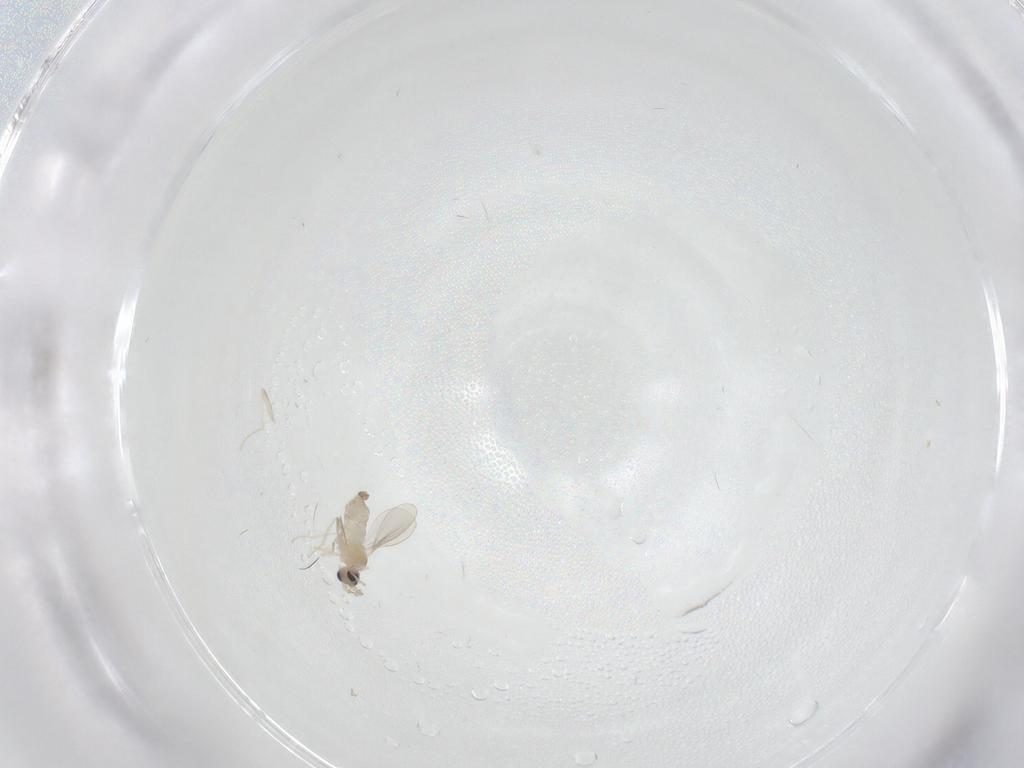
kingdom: Animalia
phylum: Arthropoda
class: Insecta
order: Diptera
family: Cecidomyiidae
